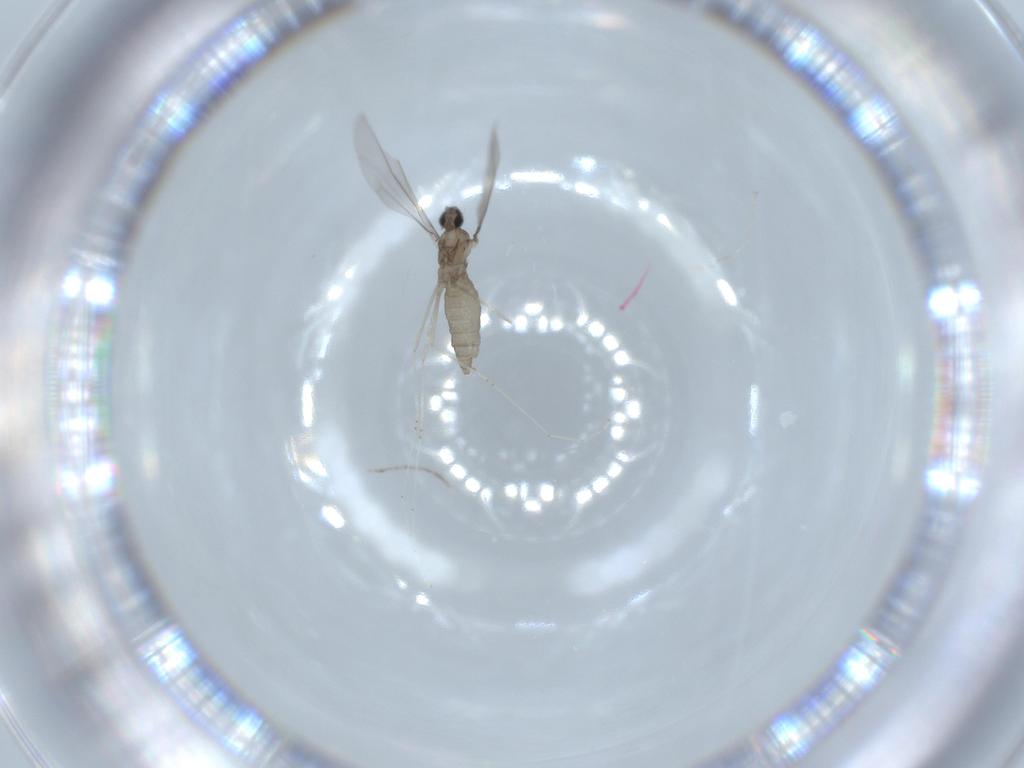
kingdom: Animalia
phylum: Arthropoda
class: Insecta
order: Diptera
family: Cecidomyiidae
